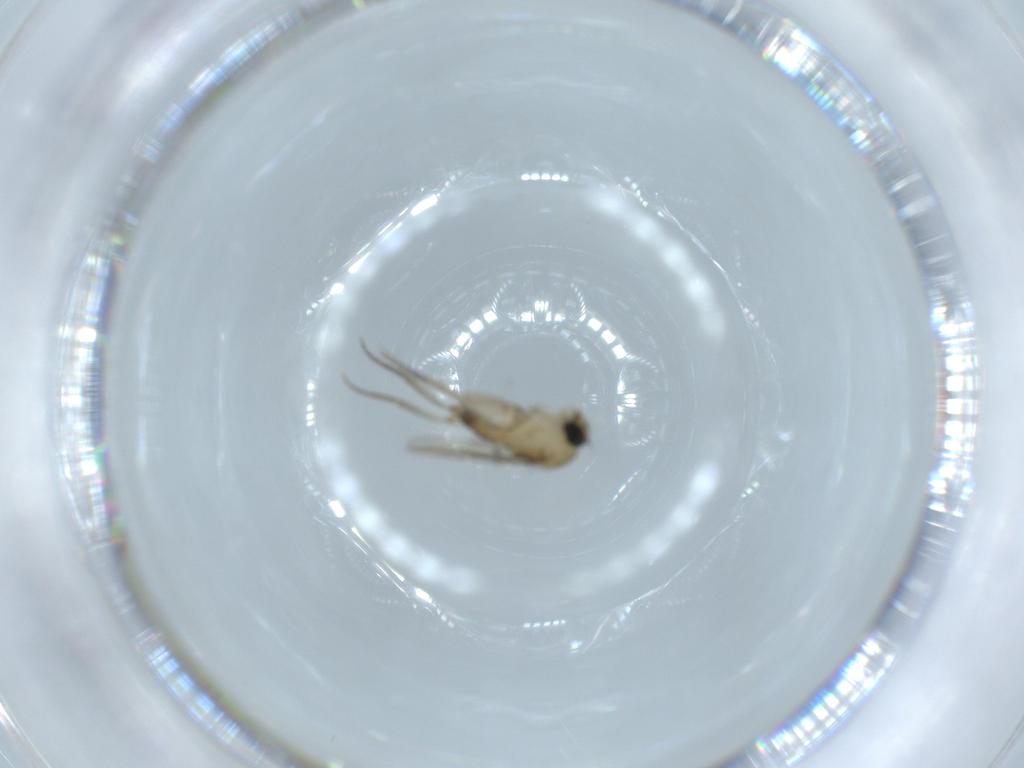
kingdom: Animalia
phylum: Arthropoda
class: Insecta
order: Diptera
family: Phoridae
